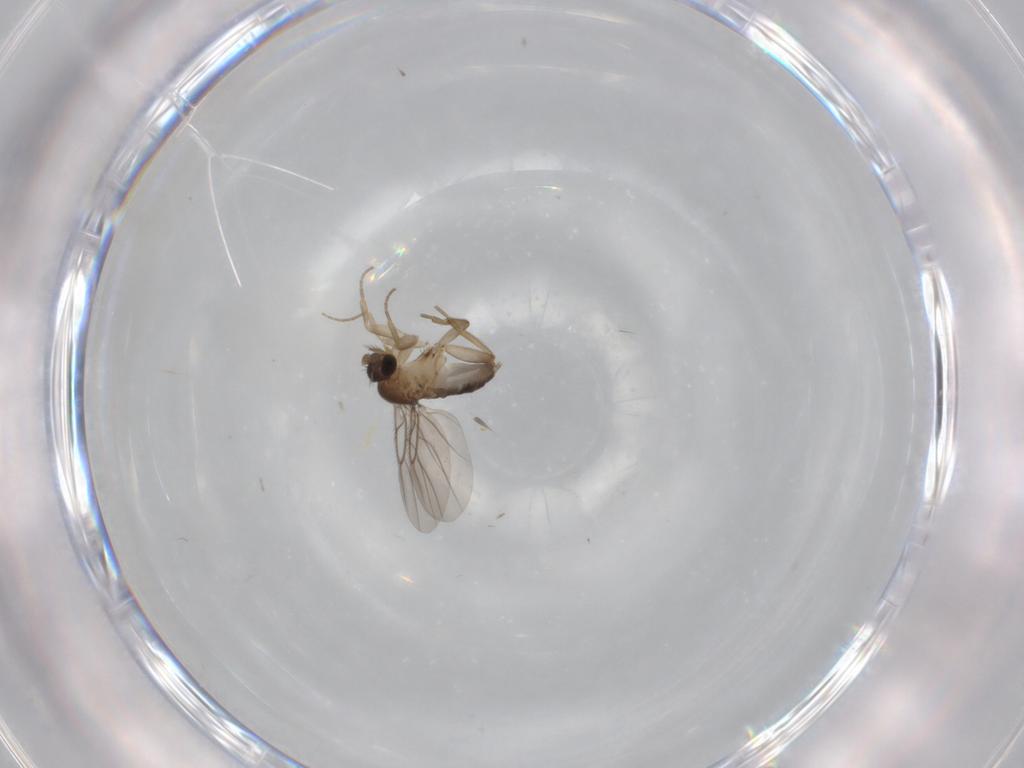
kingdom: Animalia
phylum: Arthropoda
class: Insecta
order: Diptera
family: Phoridae
